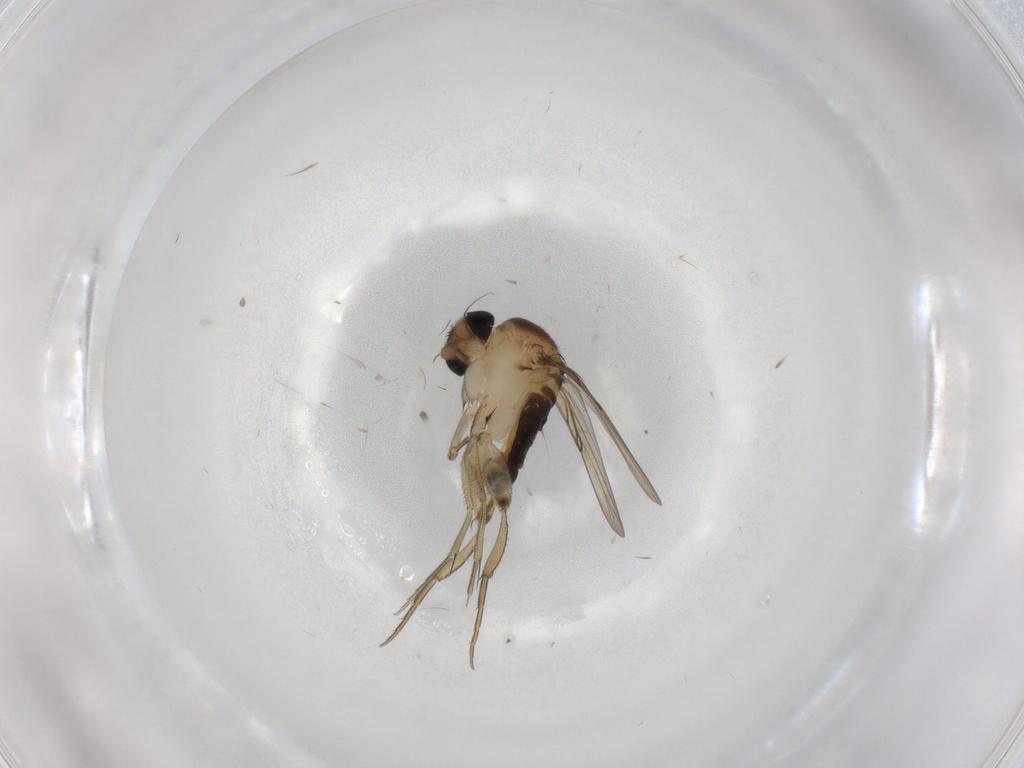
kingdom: Animalia
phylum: Arthropoda
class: Insecta
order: Diptera
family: Phoridae
